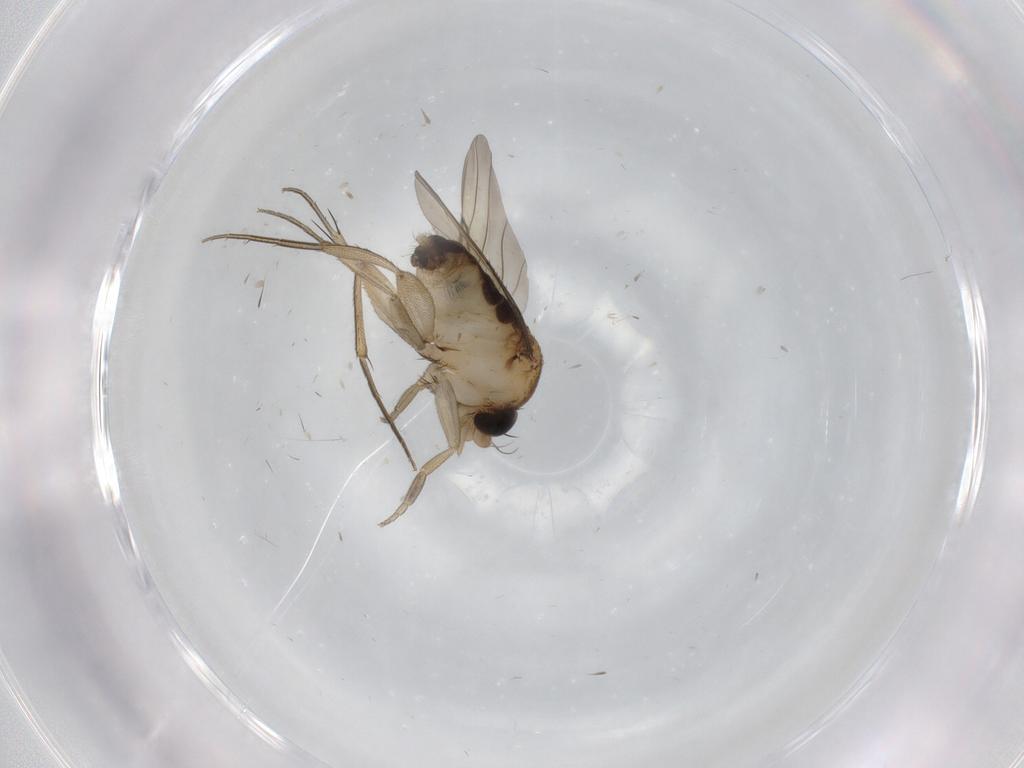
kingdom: Animalia
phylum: Arthropoda
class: Insecta
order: Diptera
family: Phoridae
